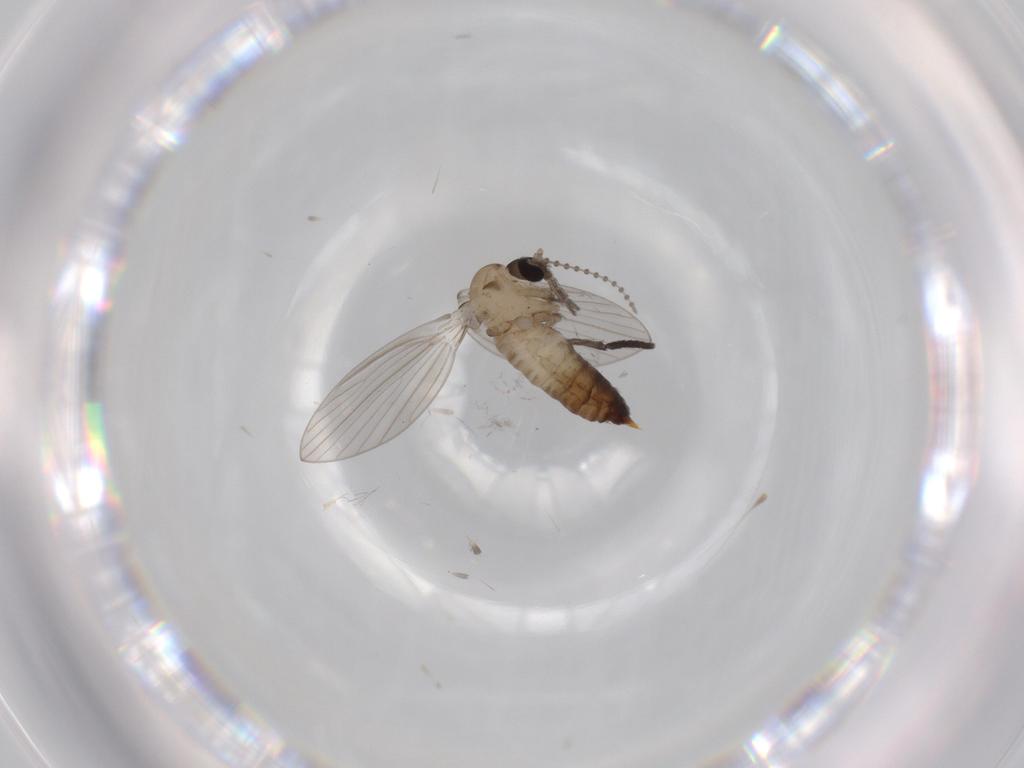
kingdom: Animalia
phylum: Arthropoda
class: Insecta
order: Diptera
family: Psychodidae
